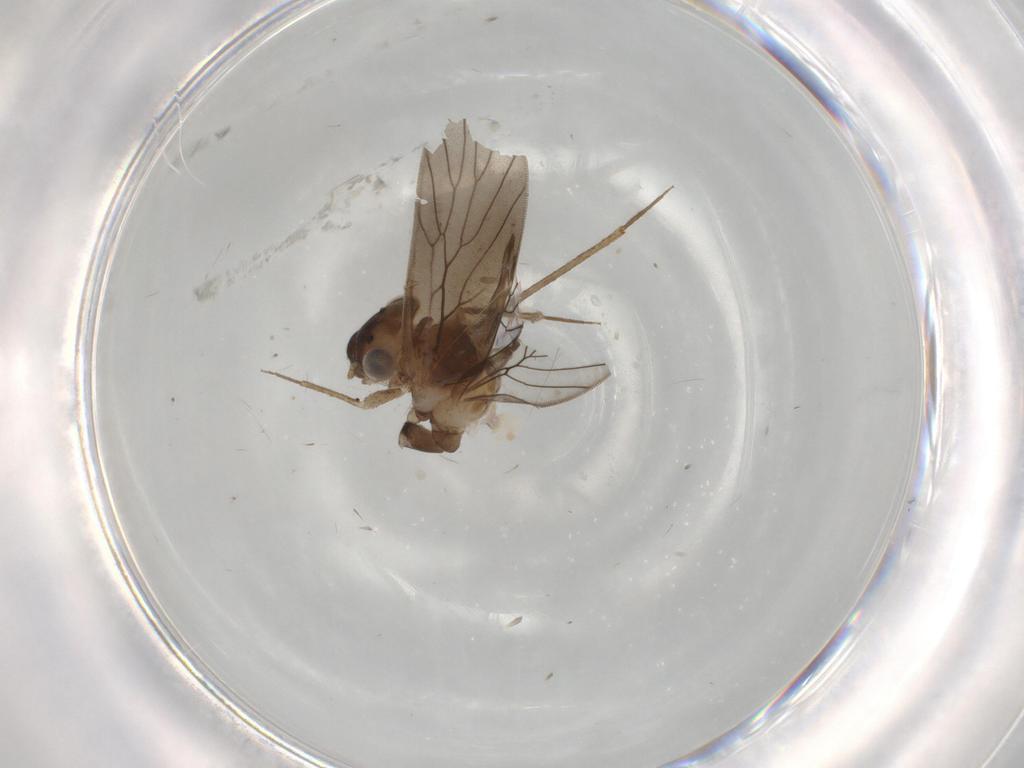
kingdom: Animalia
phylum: Arthropoda
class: Insecta
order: Psocodea
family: Lepidopsocidae
